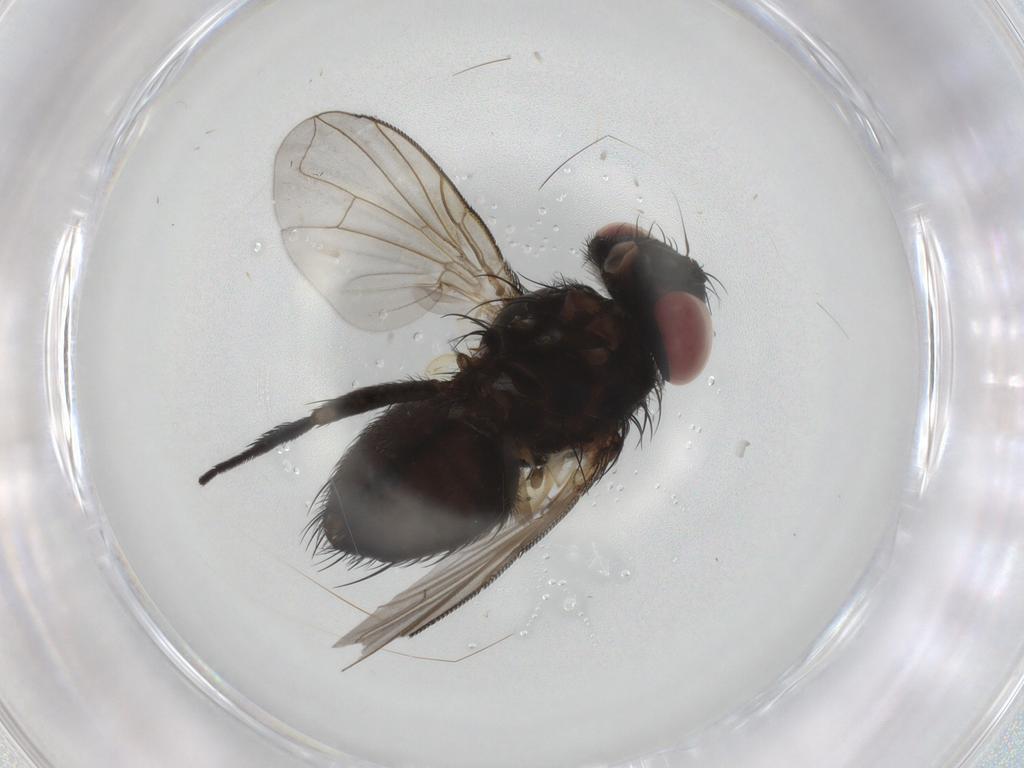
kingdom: Animalia
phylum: Arthropoda
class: Insecta
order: Diptera
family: Tachinidae
